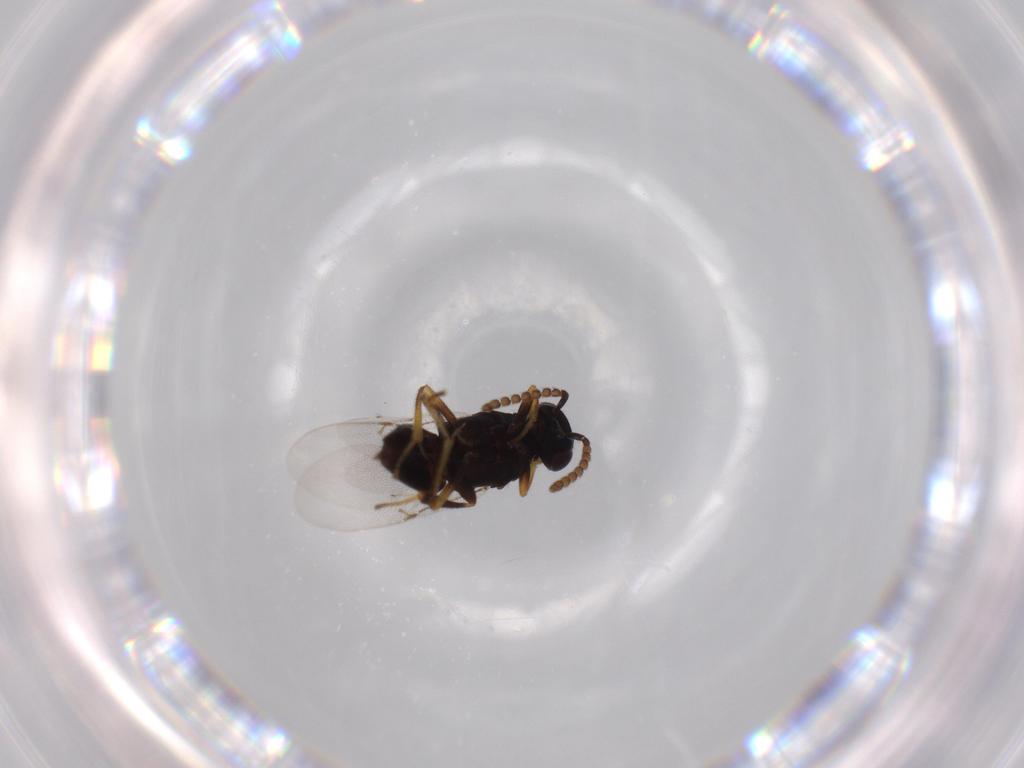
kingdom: Animalia
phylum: Arthropoda
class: Insecta
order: Hymenoptera
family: Encyrtidae
